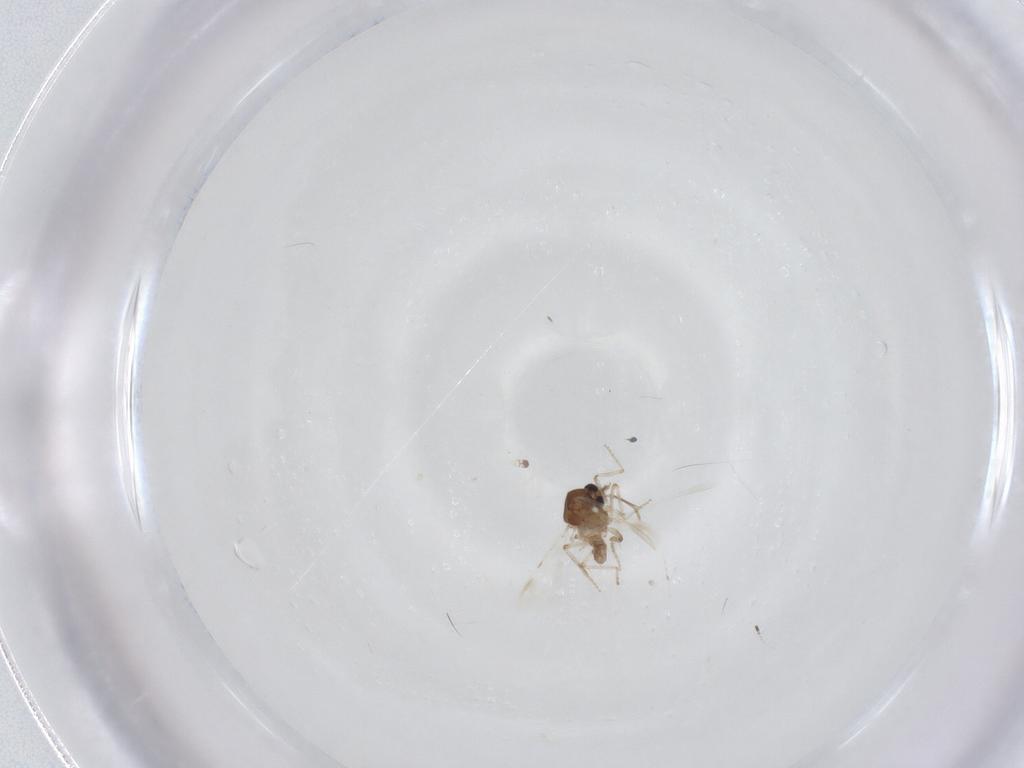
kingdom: Animalia
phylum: Arthropoda
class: Insecta
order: Diptera
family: Ceratopogonidae
